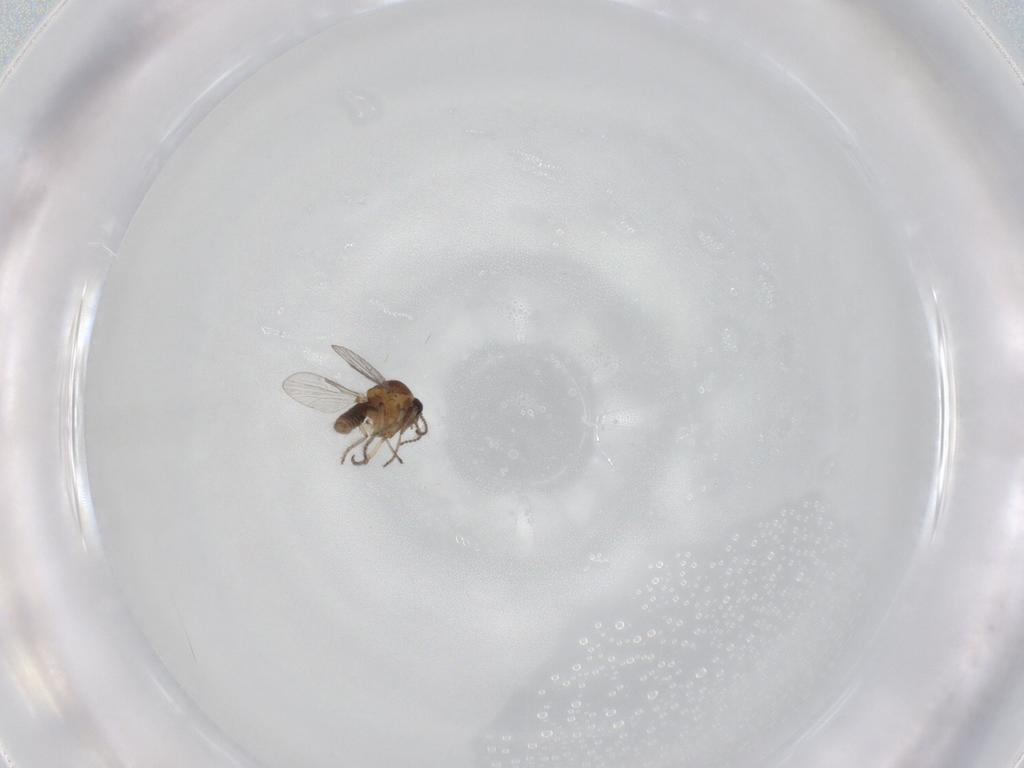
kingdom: Animalia
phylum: Arthropoda
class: Insecta
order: Diptera
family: Ceratopogonidae
